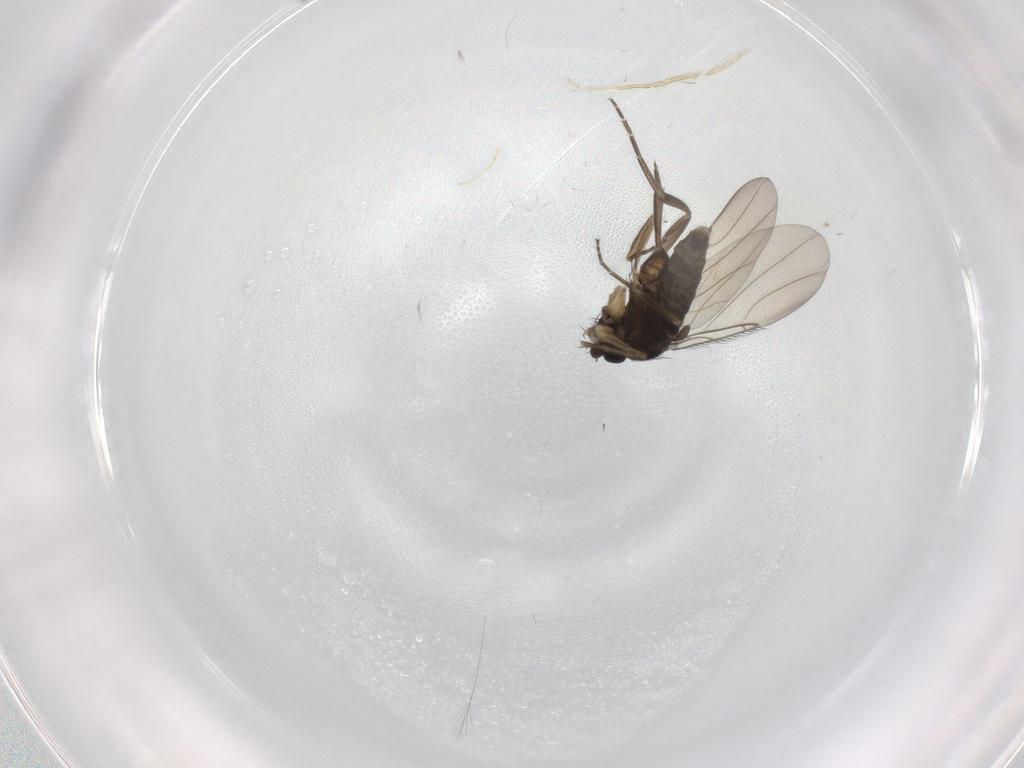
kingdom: Animalia
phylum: Arthropoda
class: Insecta
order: Diptera
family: Phoridae
